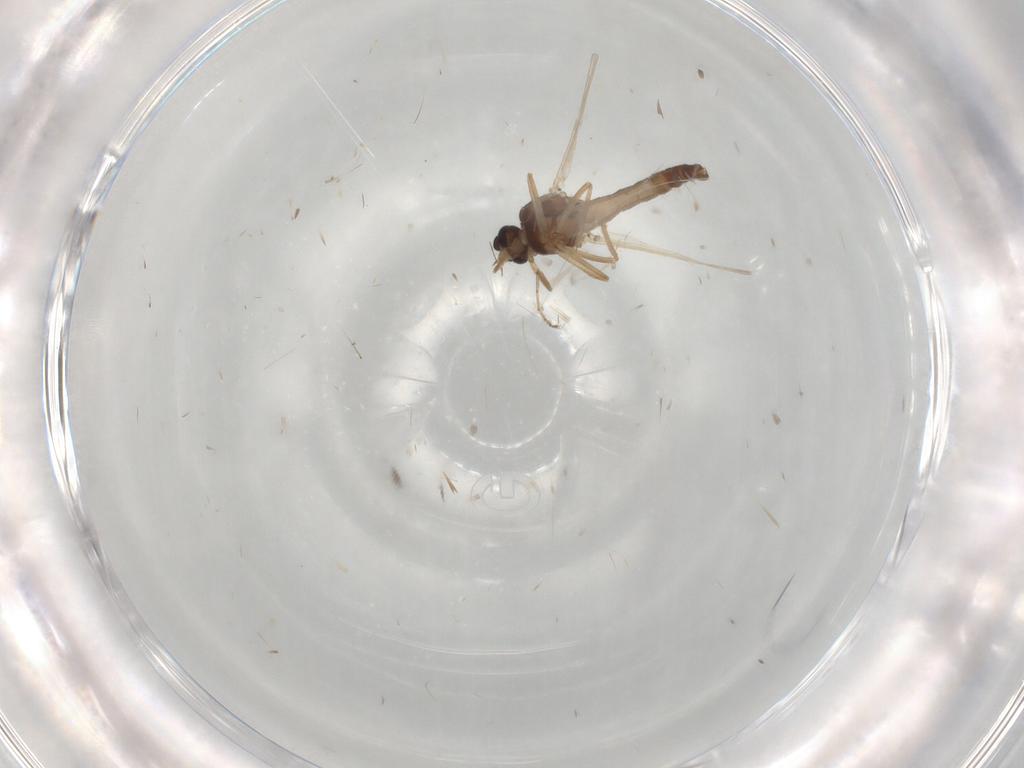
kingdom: Animalia
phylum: Arthropoda
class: Insecta
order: Diptera
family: Ceratopogonidae
